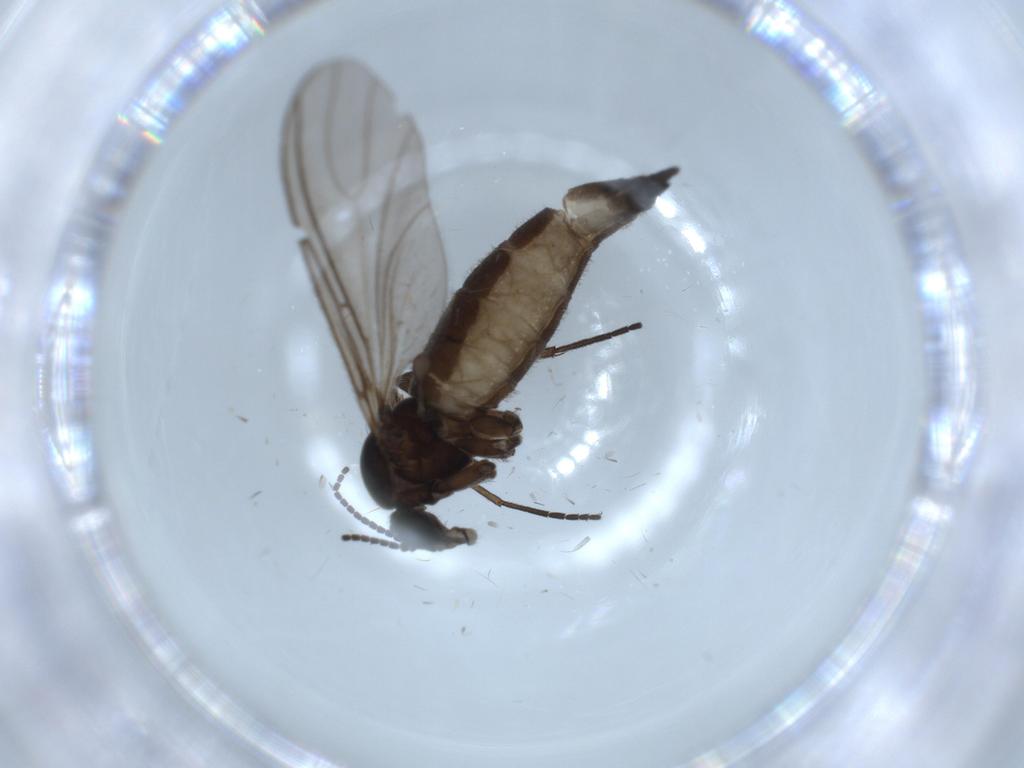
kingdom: Animalia
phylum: Arthropoda
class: Insecta
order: Diptera
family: Sciaridae
